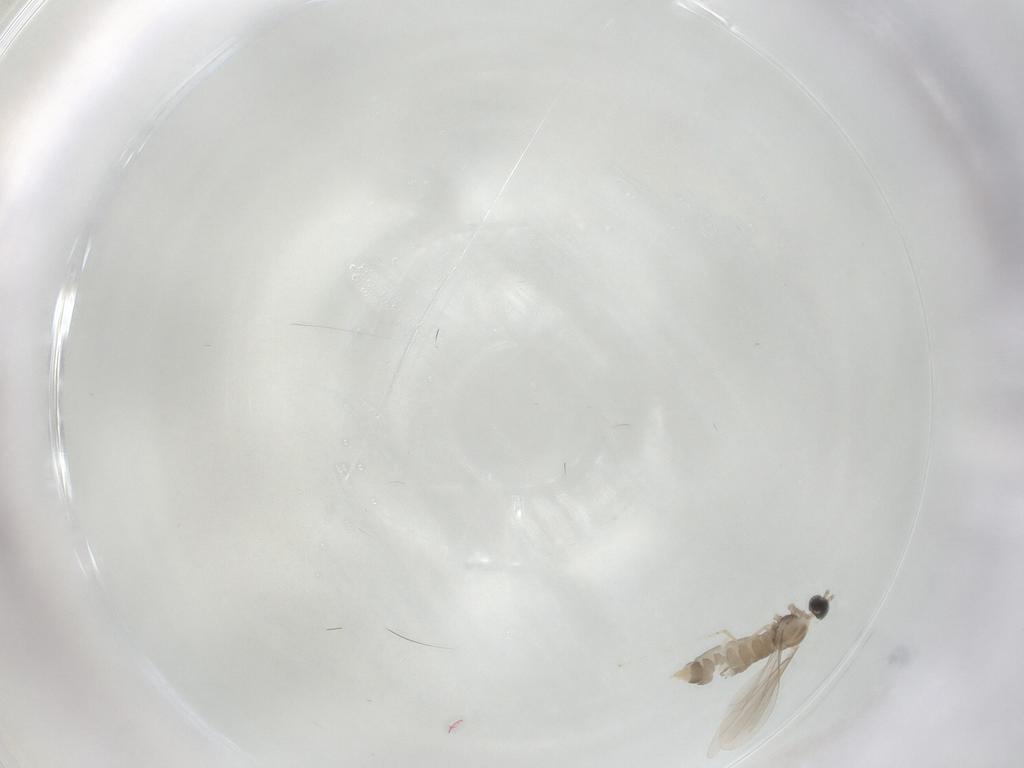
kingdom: Animalia
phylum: Arthropoda
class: Insecta
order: Diptera
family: Cecidomyiidae
